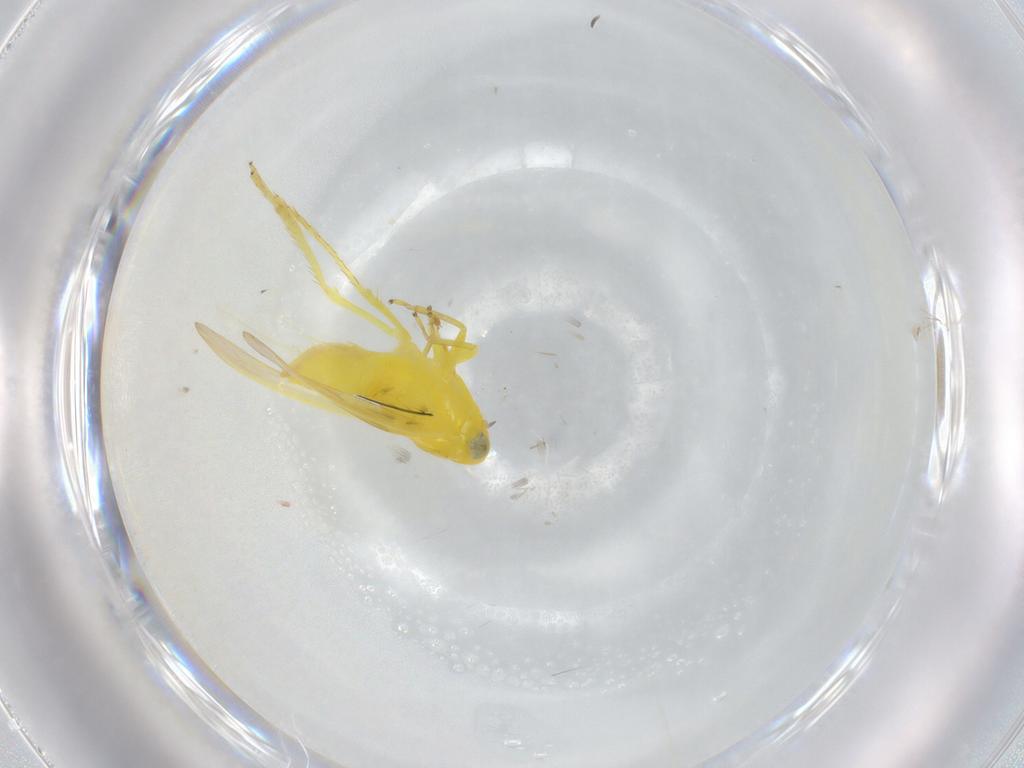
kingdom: Animalia
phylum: Arthropoda
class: Insecta
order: Hemiptera
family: Cicadellidae
